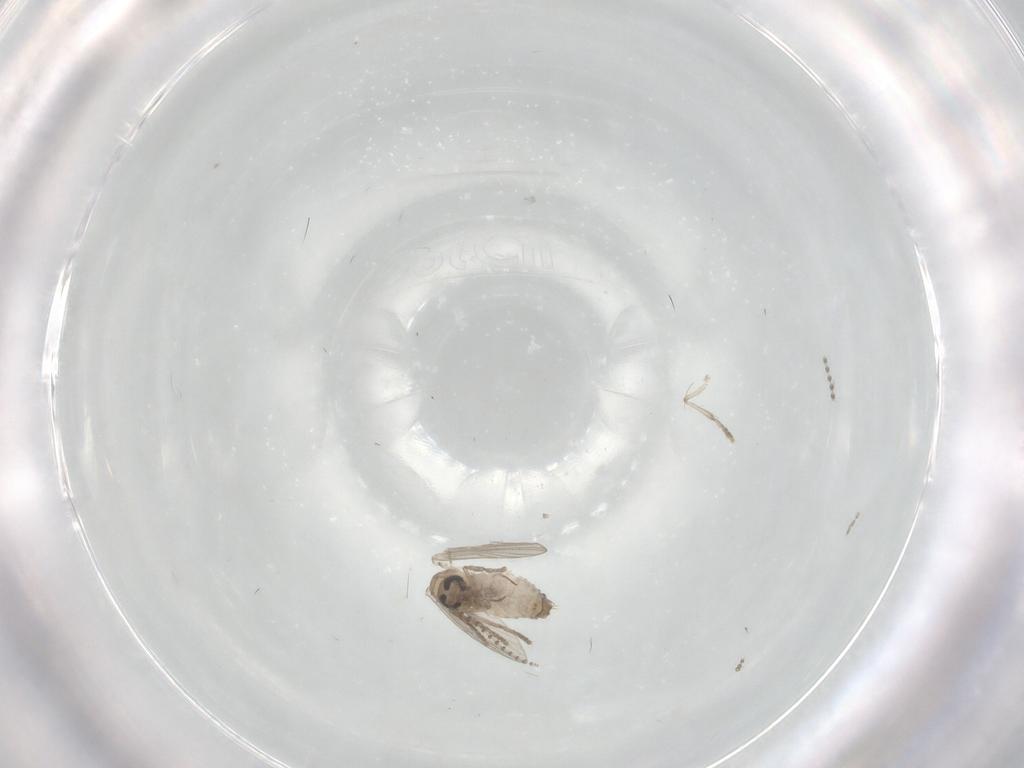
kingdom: Animalia
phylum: Arthropoda
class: Insecta
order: Diptera
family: Psychodidae
